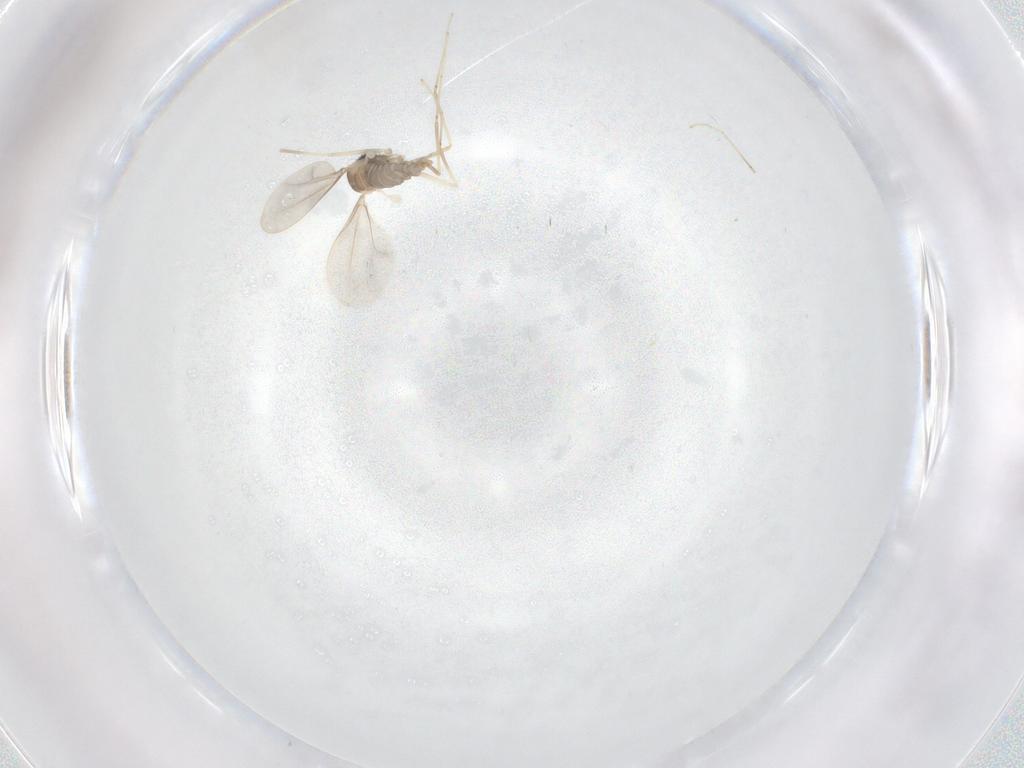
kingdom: Animalia
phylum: Arthropoda
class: Insecta
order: Diptera
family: Cecidomyiidae
